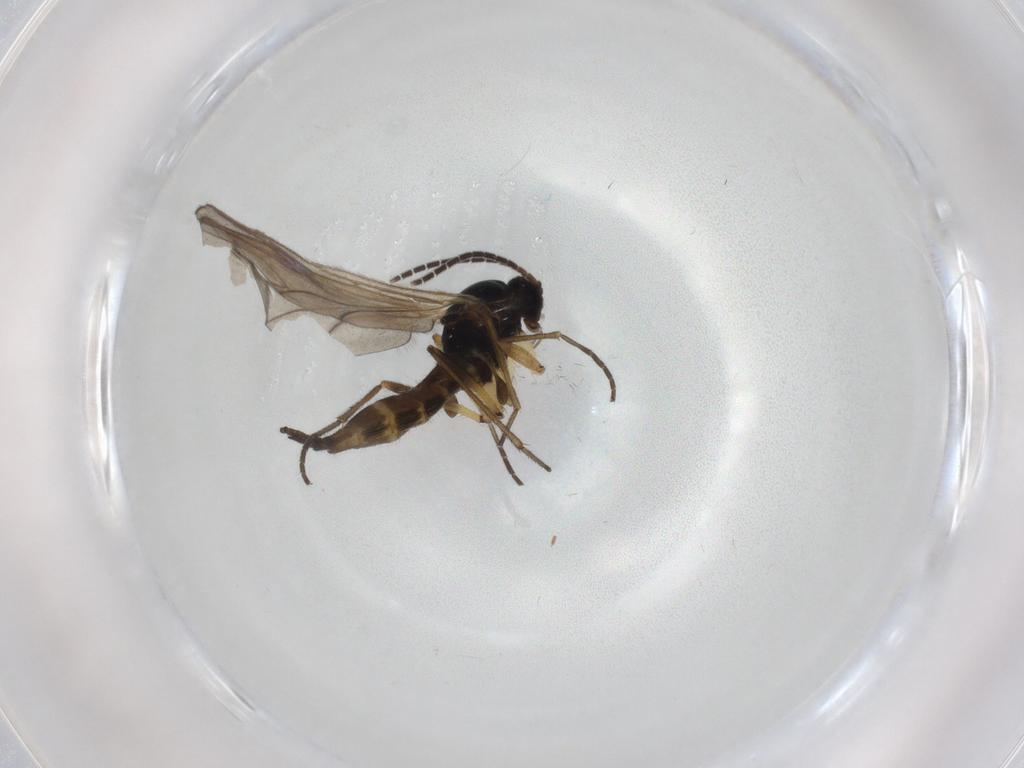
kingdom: Animalia
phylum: Arthropoda
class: Insecta
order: Diptera
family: Sciaridae
